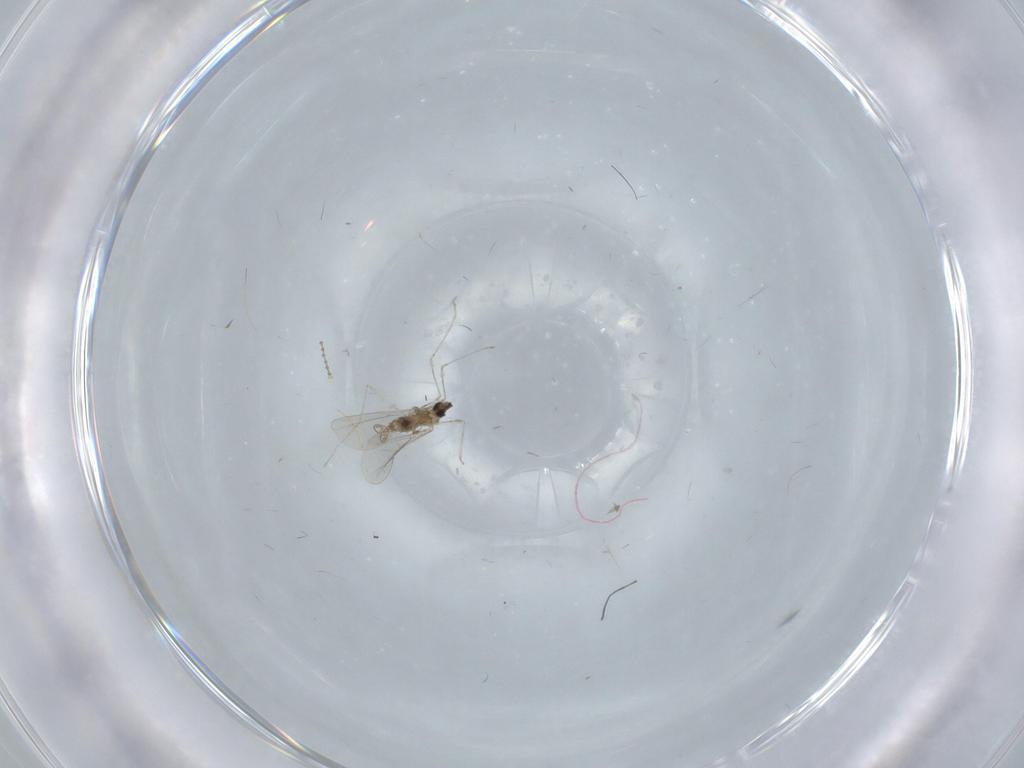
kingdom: Animalia
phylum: Arthropoda
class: Insecta
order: Diptera
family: Cecidomyiidae
